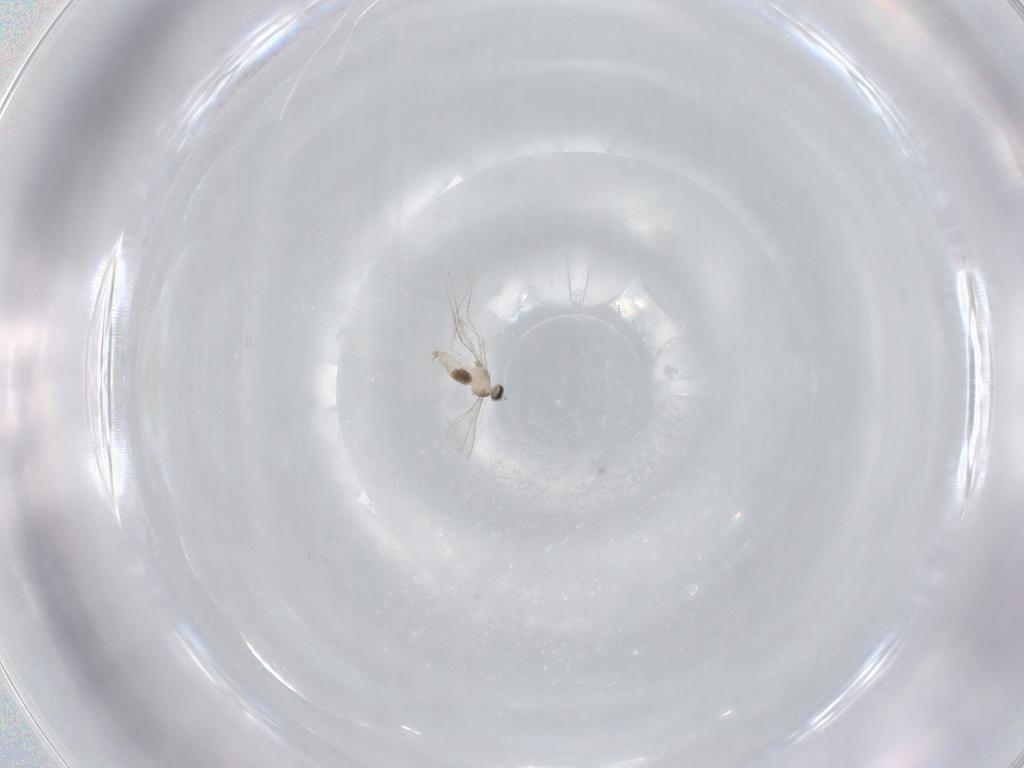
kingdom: Animalia
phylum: Arthropoda
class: Insecta
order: Diptera
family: Cecidomyiidae
